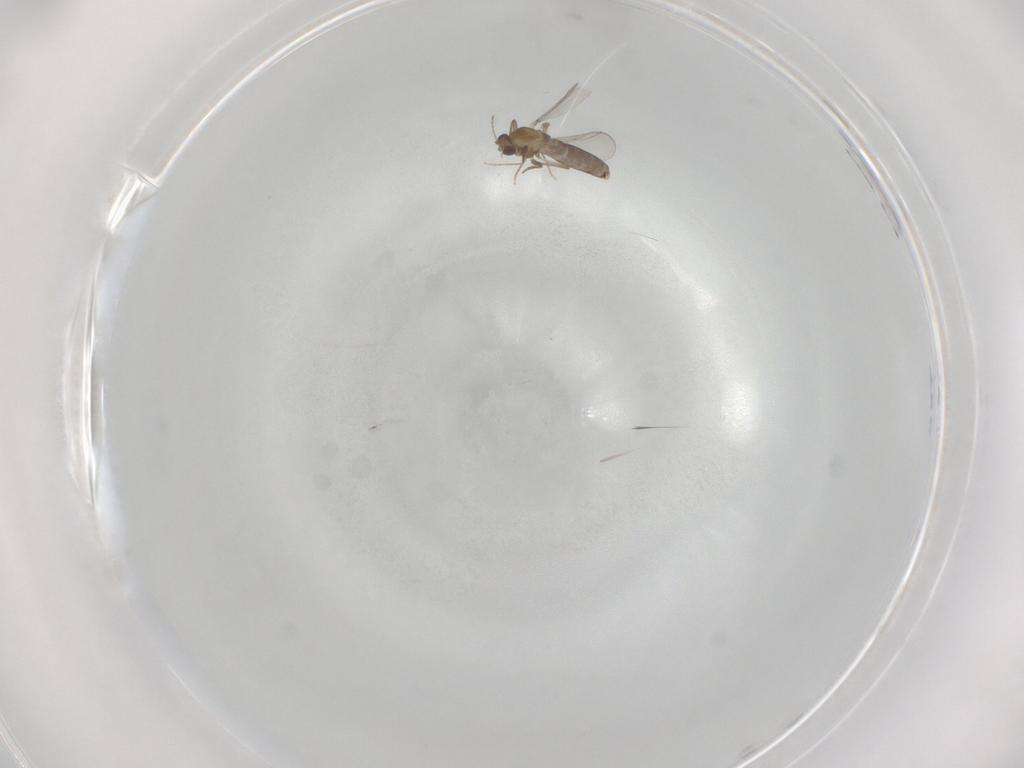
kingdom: Animalia
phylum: Arthropoda
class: Insecta
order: Diptera
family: Chironomidae
